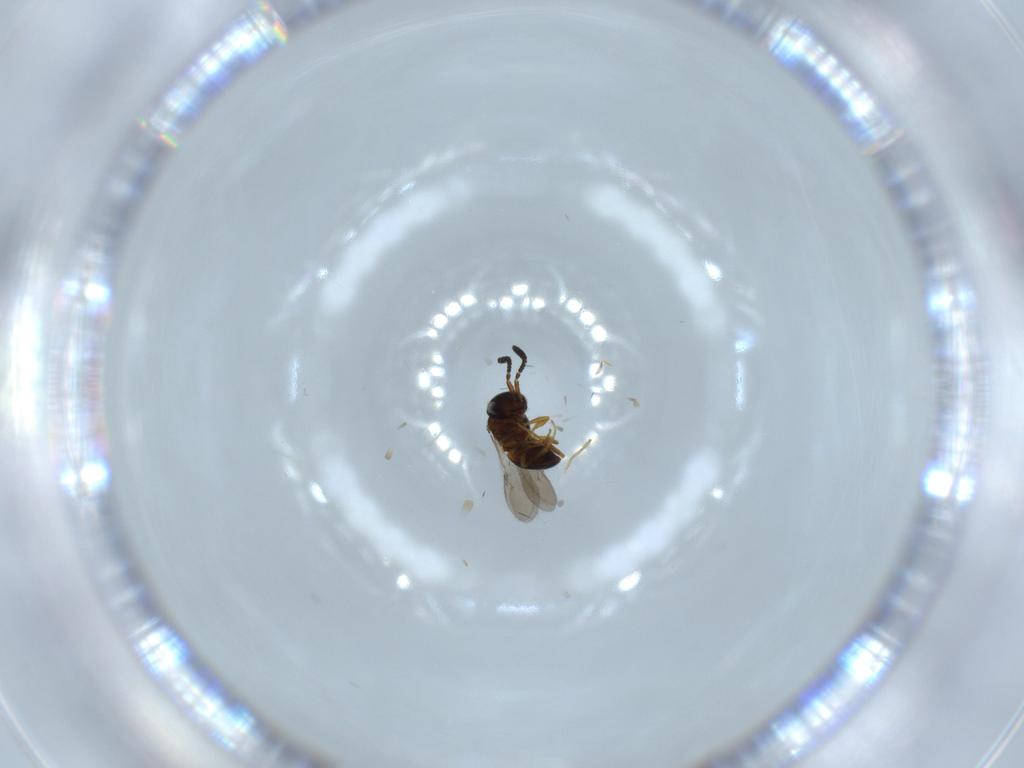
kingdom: Animalia
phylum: Arthropoda
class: Insecta
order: Hymenoptera
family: Scelionidae
